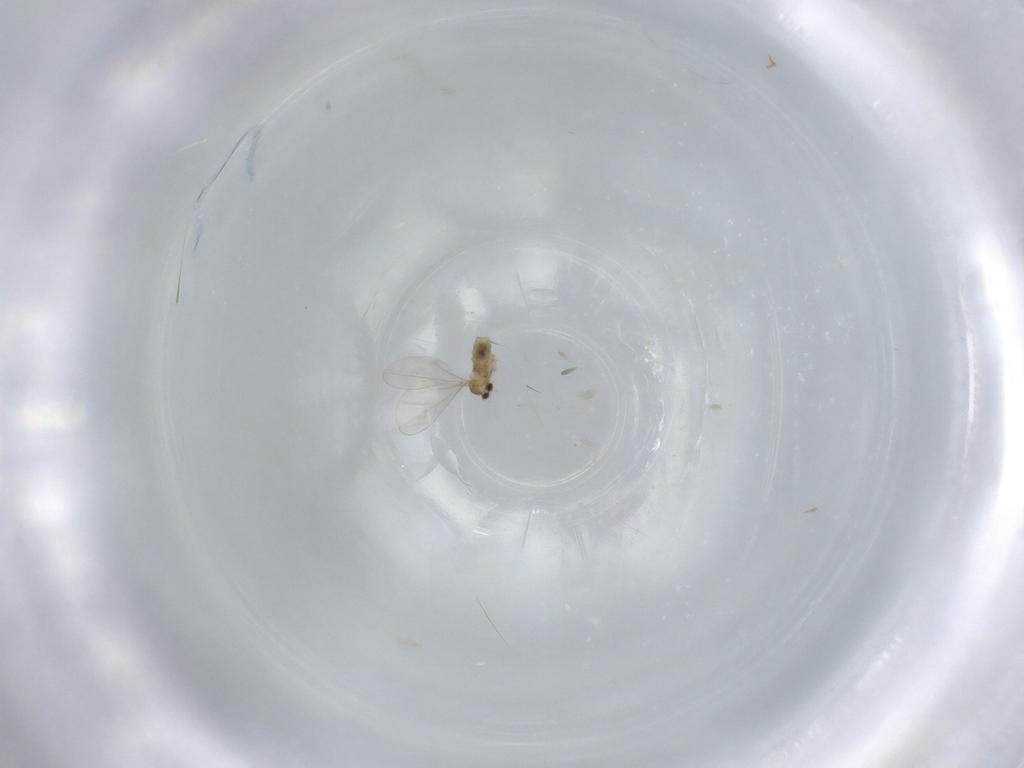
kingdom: Animalia
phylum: Arthropoda
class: Insecta
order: Diptera
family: Cecidomyiidae
